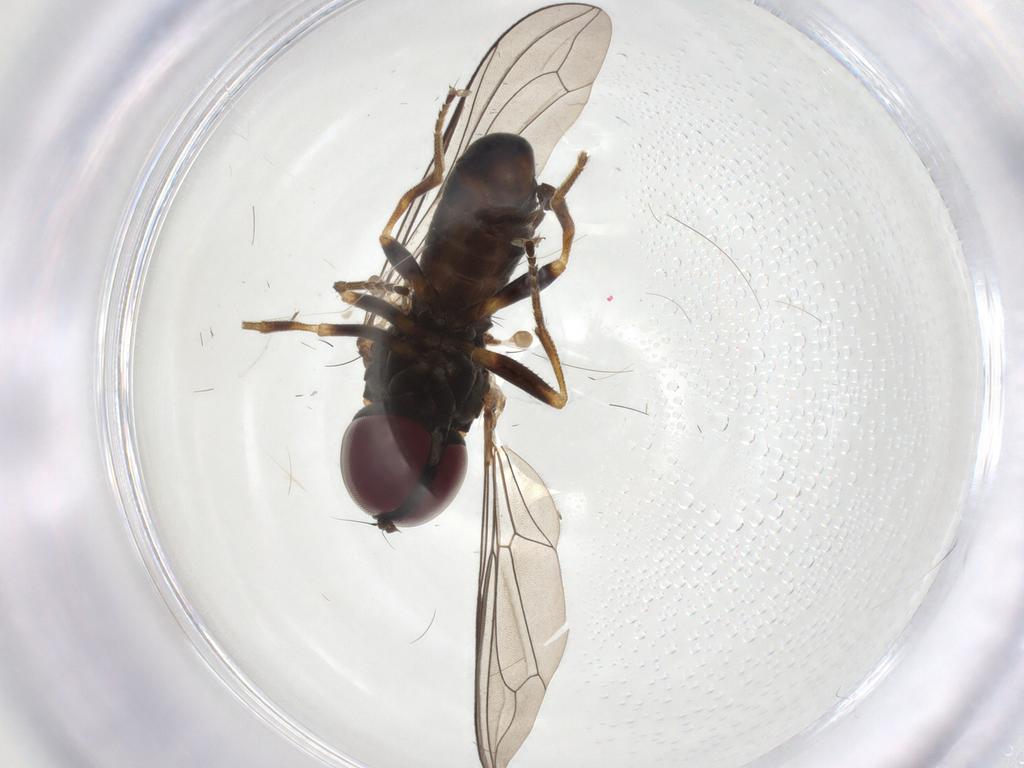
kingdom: Animalia
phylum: Arthropoda
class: Insecta
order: Diptera
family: Pipunculidae
